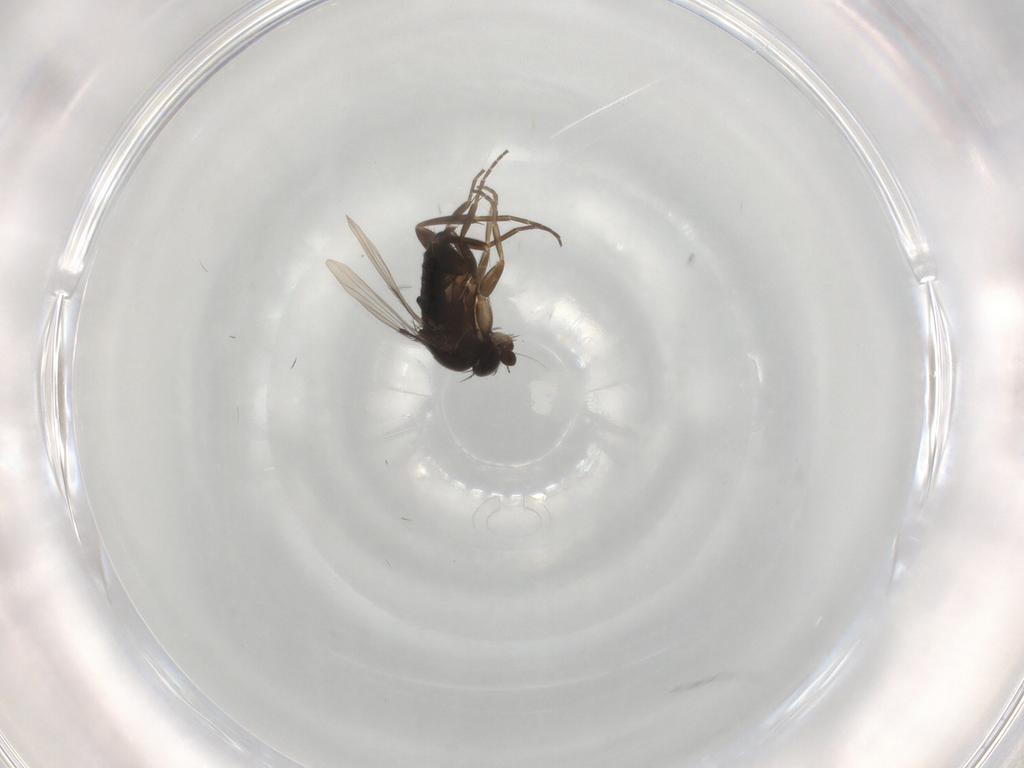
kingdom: Animalia
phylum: Arthropoda
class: Insecta
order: Diptera
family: Phoridae
